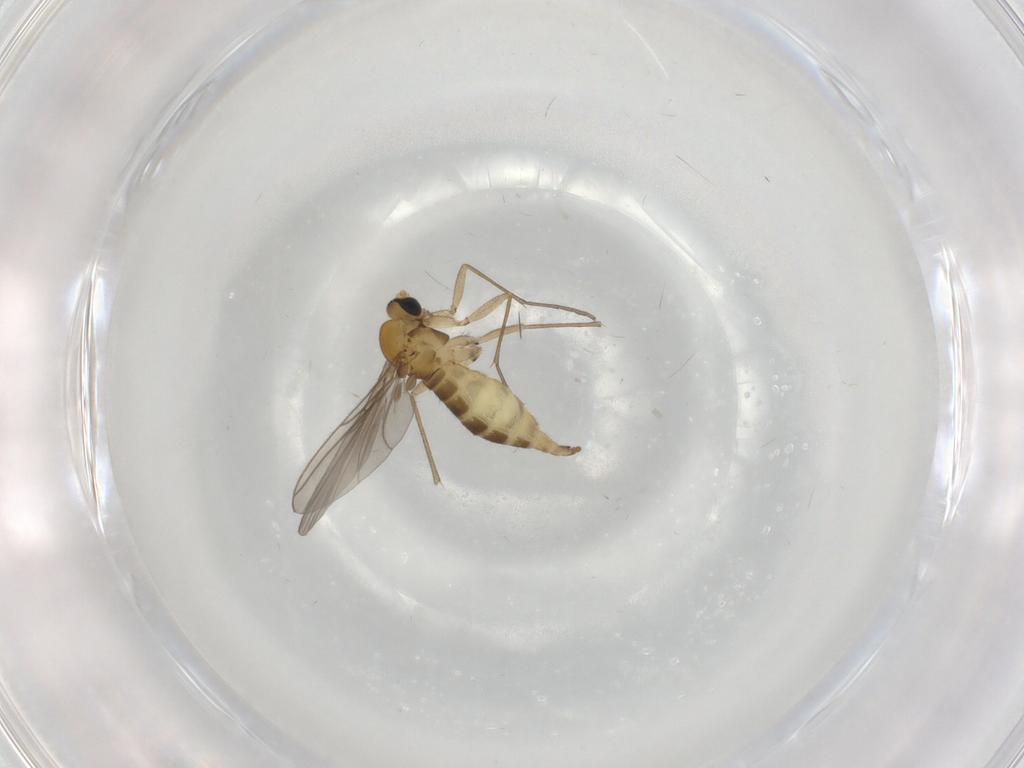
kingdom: Animalia
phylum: Arthropoda
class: Insecta
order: Diptera
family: Sciaridae
